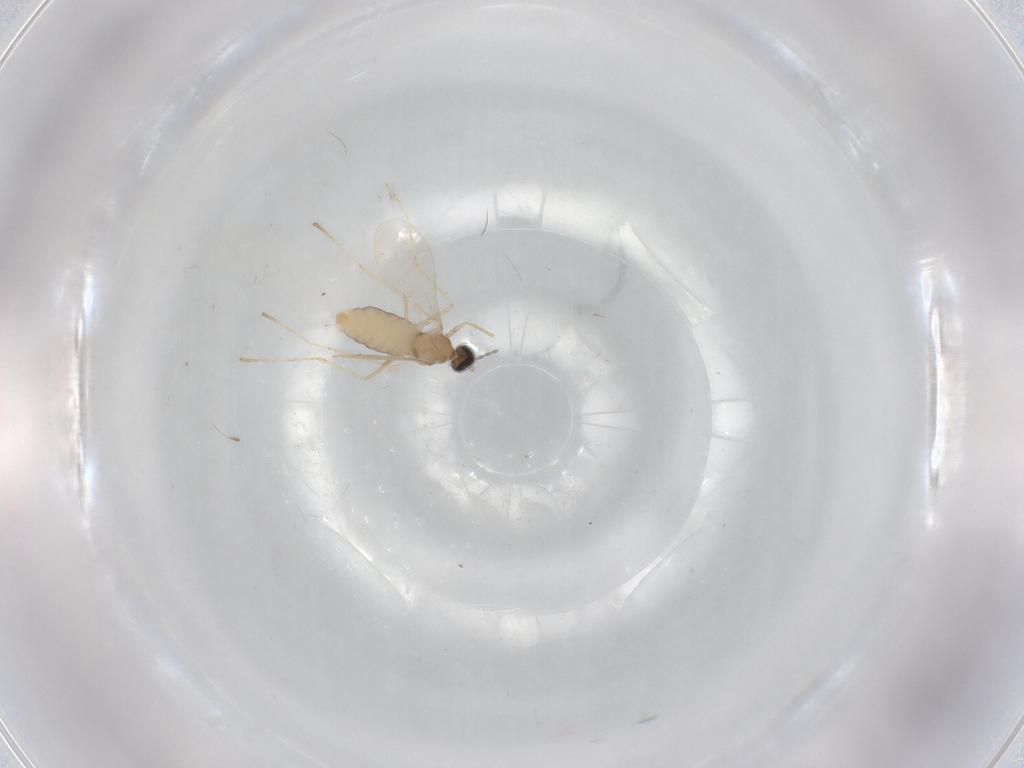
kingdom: Animalia
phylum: Arthropoda
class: Insecta
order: Diptera
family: Cecidomyiidae
